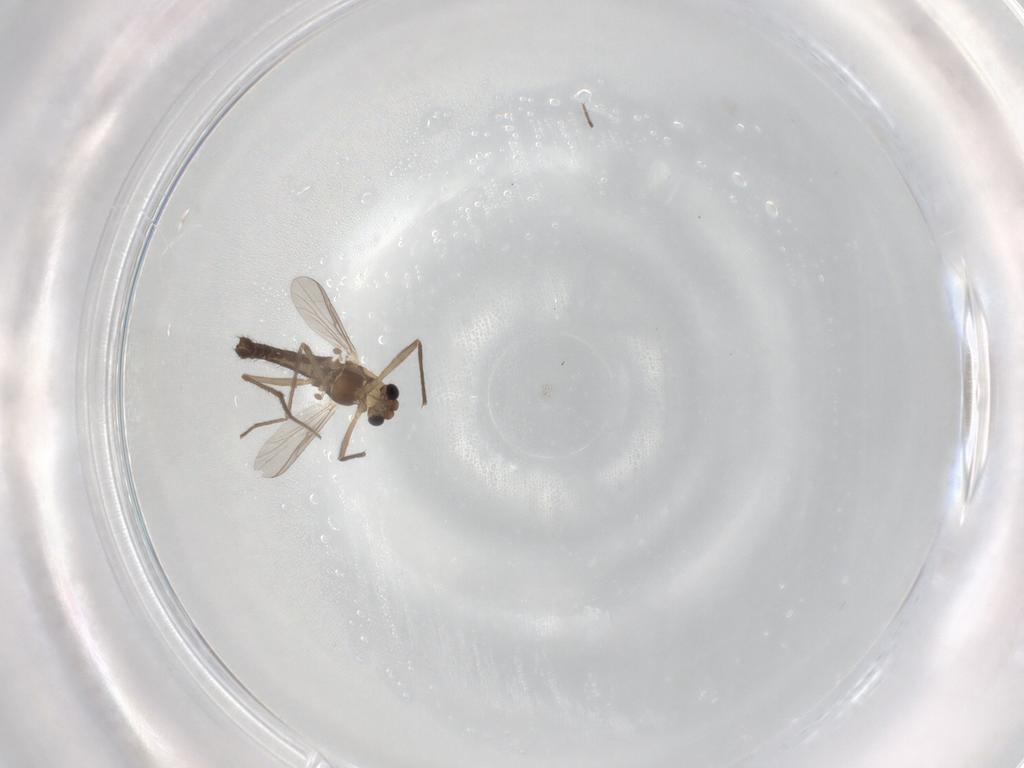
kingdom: Animalia
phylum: Arthropoda
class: Insecta
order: Diptera
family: Chironomidae
